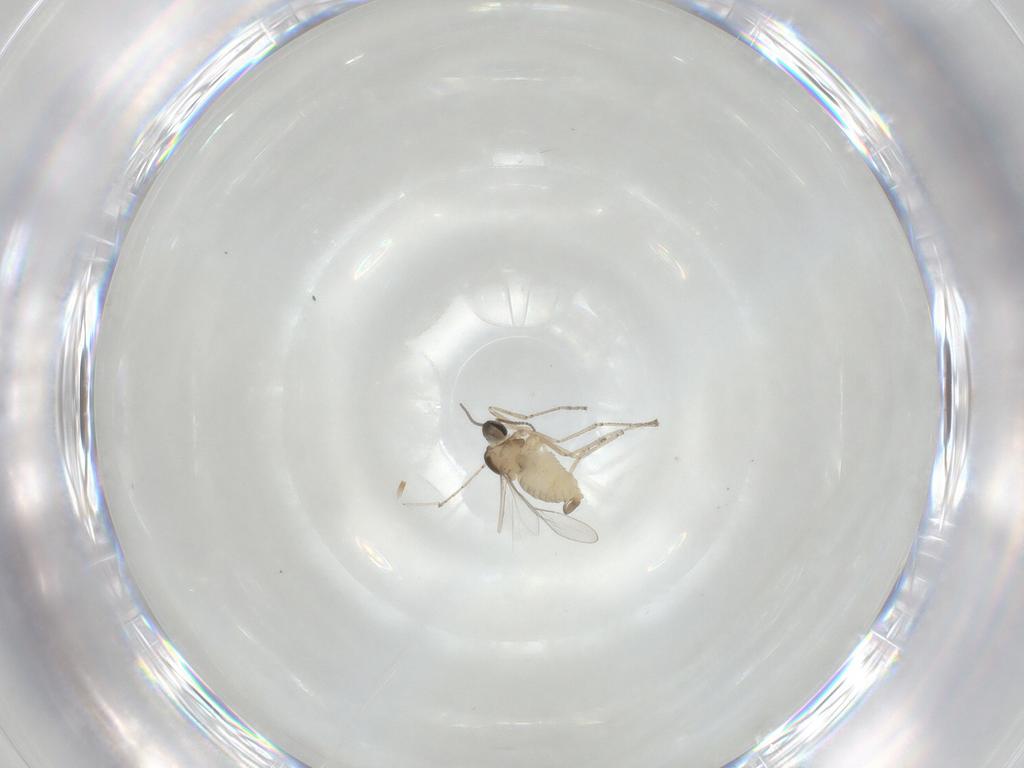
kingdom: Animalia
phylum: Arthropoda
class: Insecta
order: Diptera
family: Cecidomyiidae
